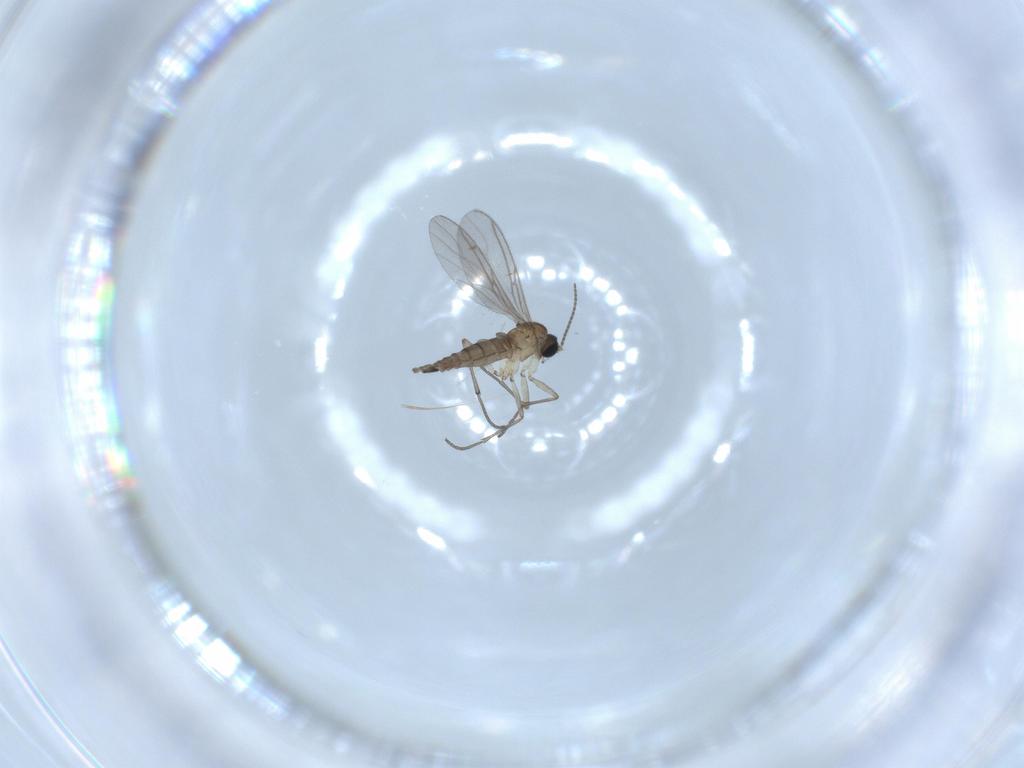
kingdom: Animalia
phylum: Arthropoda
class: Insecta
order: Diptera
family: Sciaridae
